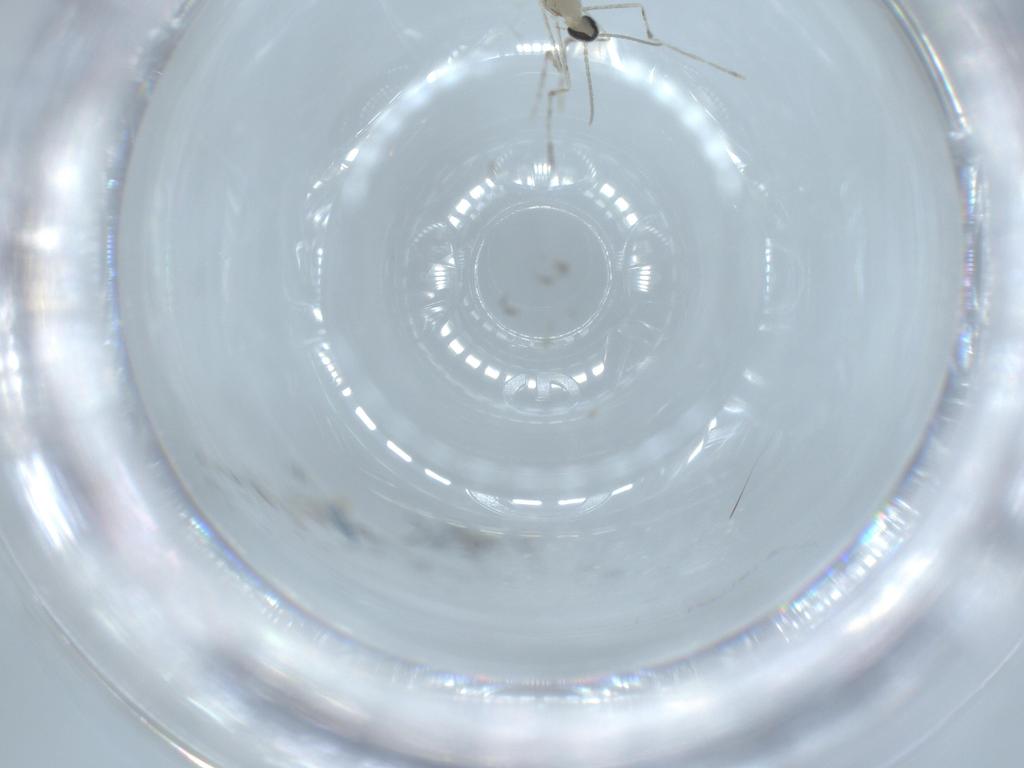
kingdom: Animalia
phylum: Arthropoda
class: Insecta
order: Diptera
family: Cecidomyiidae
